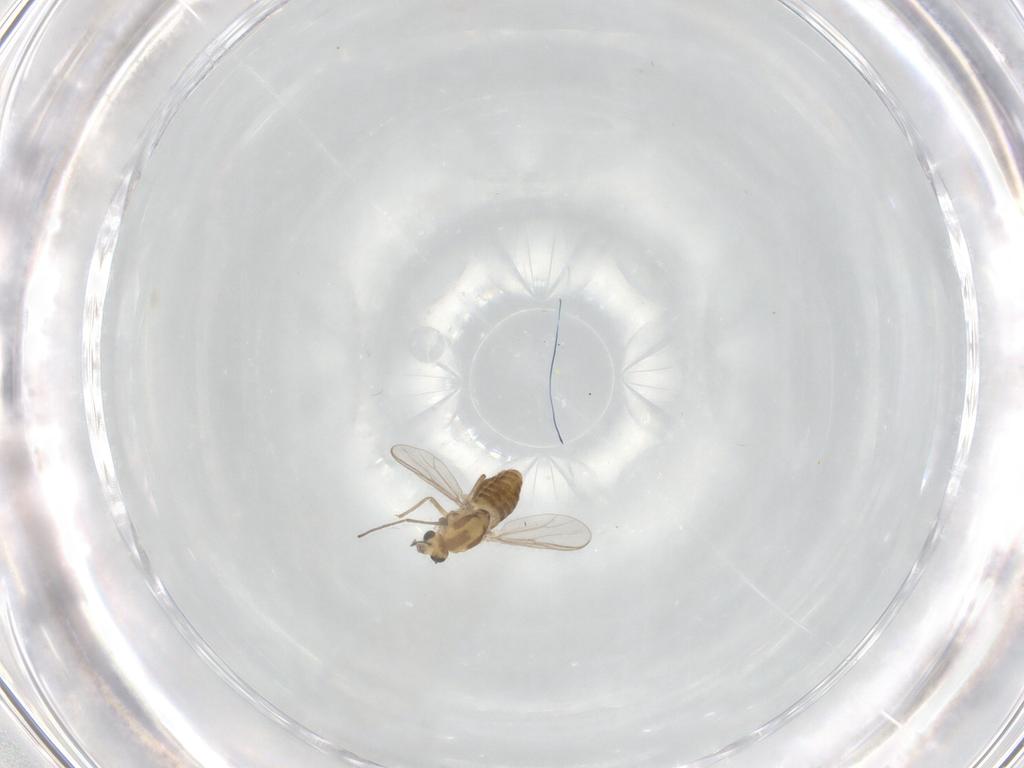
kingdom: Animalia
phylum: Arthropoda
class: Insecta
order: Diptera
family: Chironomidae
